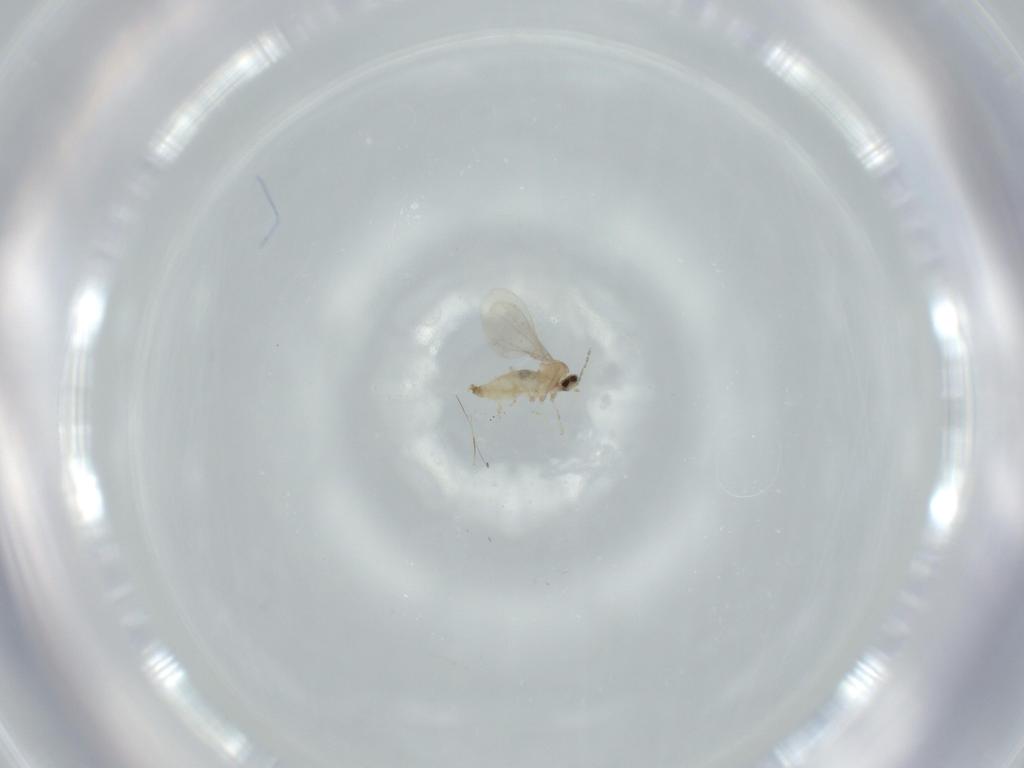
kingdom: Animalia
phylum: Arthropoda
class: Insecta
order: Diptera
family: Cecidomyiidae
